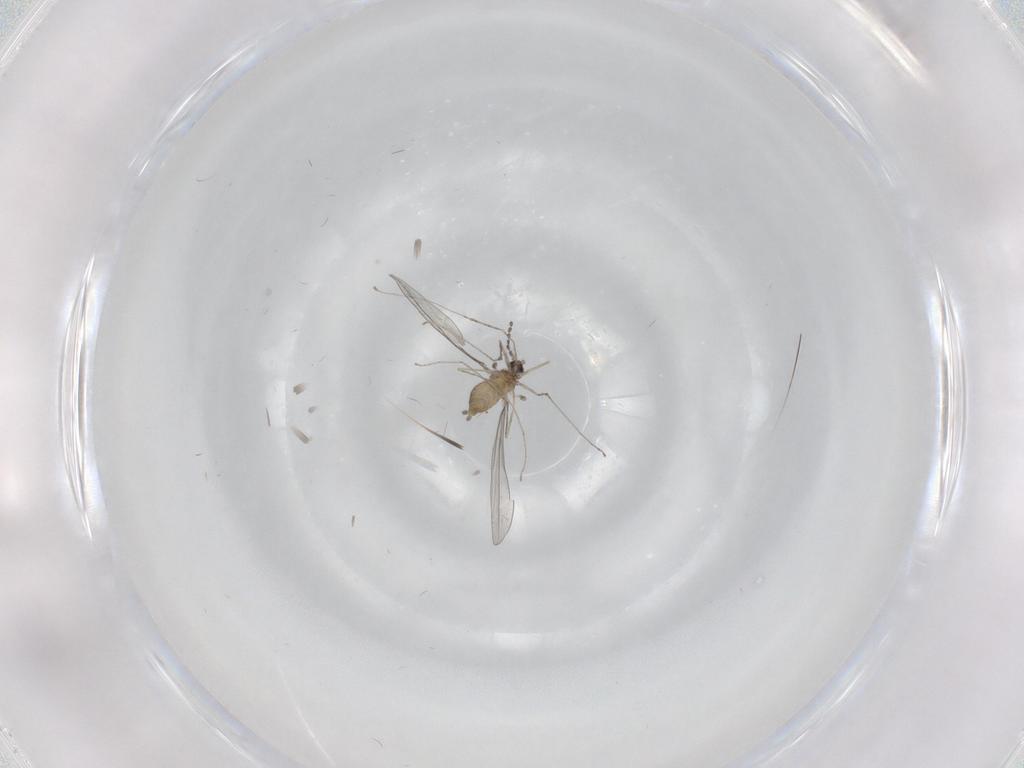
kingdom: Animalia
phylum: Arthropoda
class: Insecta
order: Diptera
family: Cecidomyiidae
